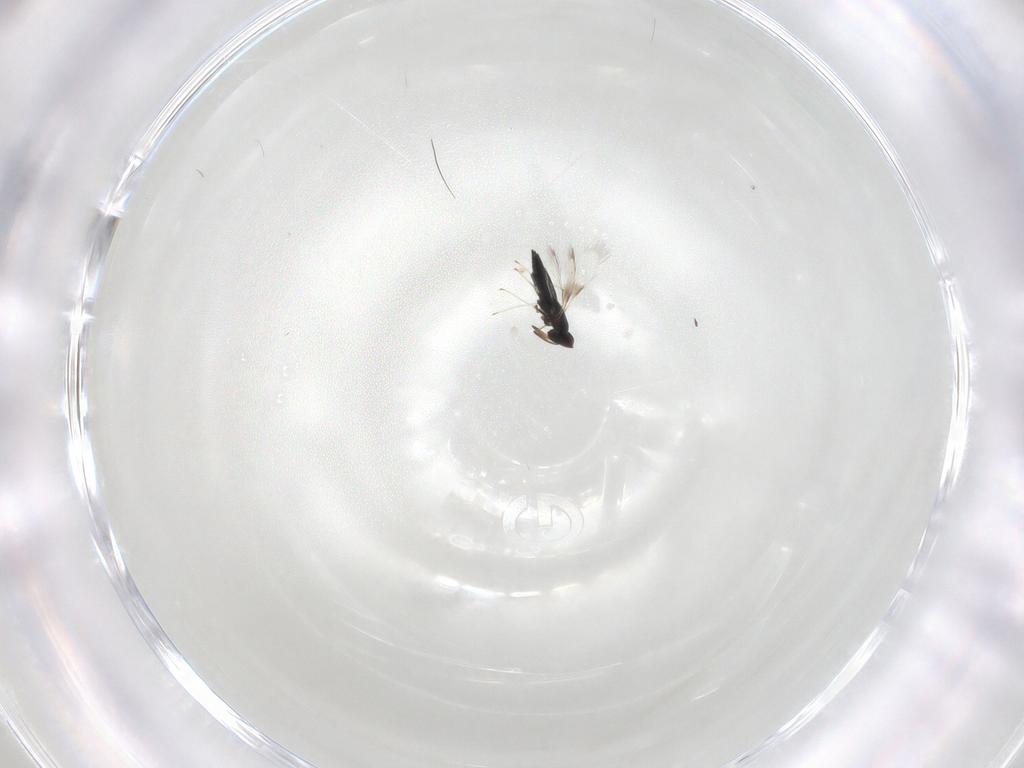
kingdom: Animalia
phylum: Arthropoda
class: Insecta
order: Hymenoptera
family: Signiphoridae
